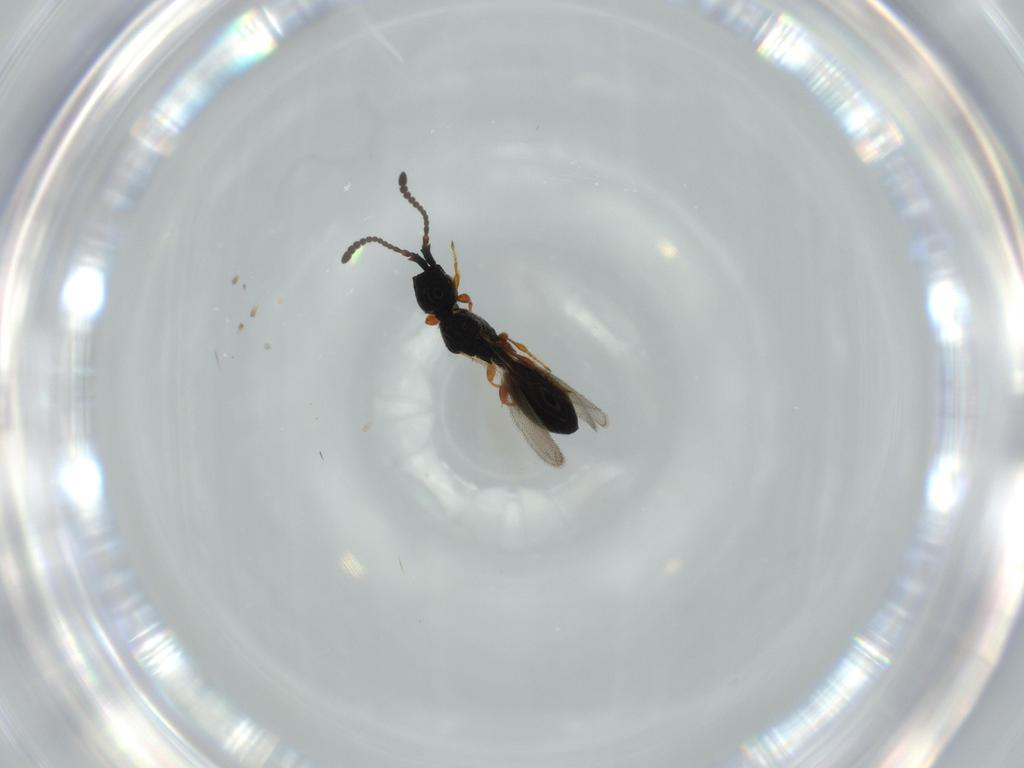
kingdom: Animalia
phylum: Arthropoda
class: Insecta
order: Hymenoptera
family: Diapriidae
